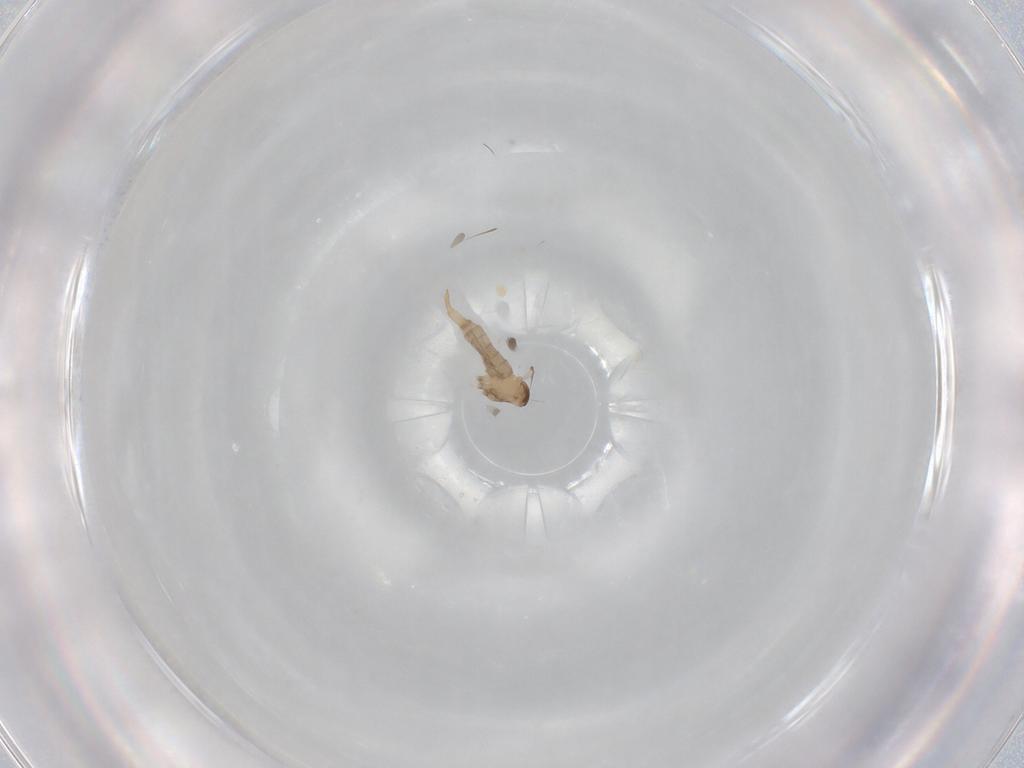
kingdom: Animalia
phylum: Arthropoda
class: Insecta
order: Diptera
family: Cecidomyiidae
